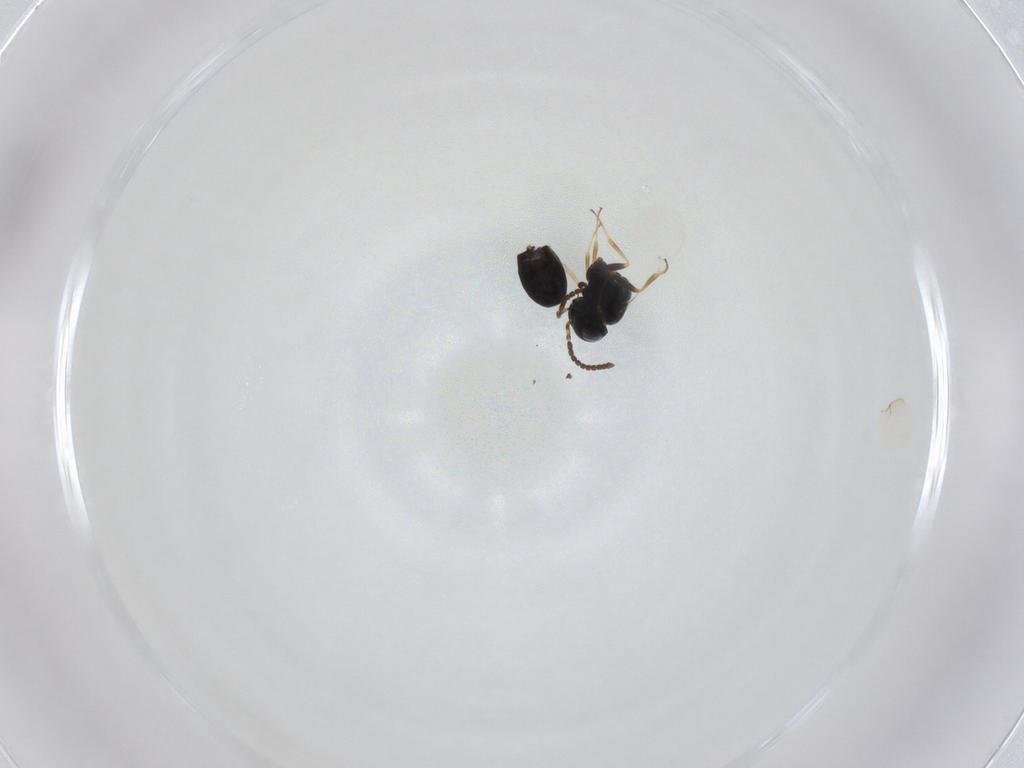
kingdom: Animalia
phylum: Arthropoda
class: Insecta
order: Hymenoptera
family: Scelionidae
